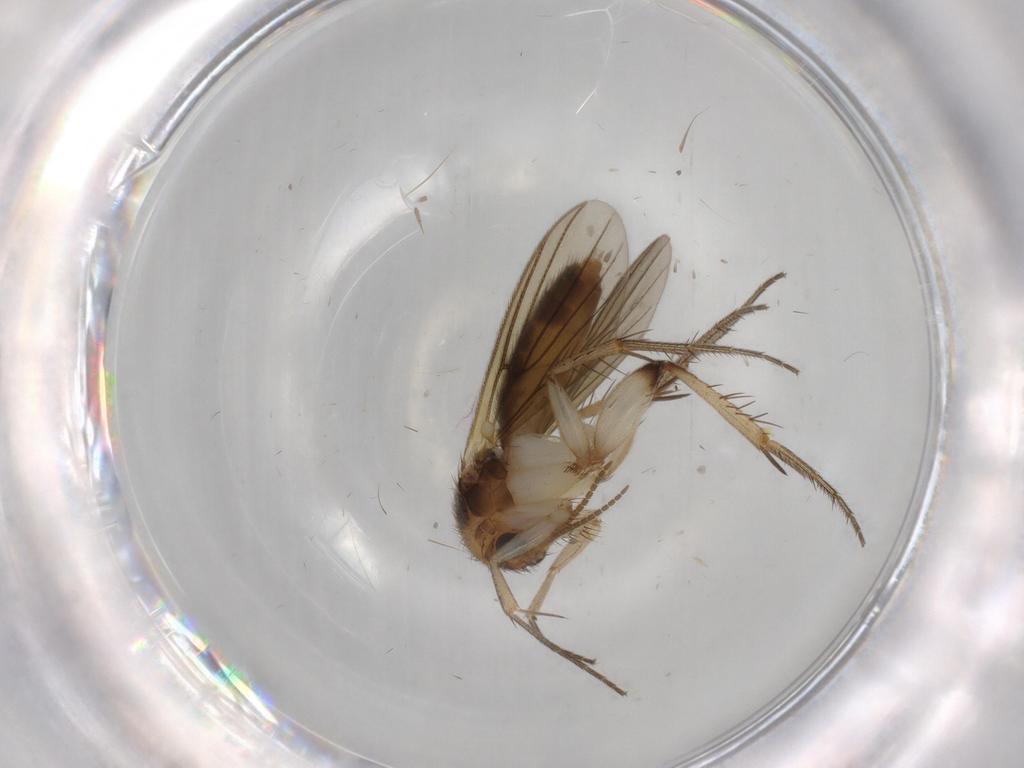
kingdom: Animalia
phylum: Arthropoda
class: Insecta
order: Diptera
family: Mycetophilidae
